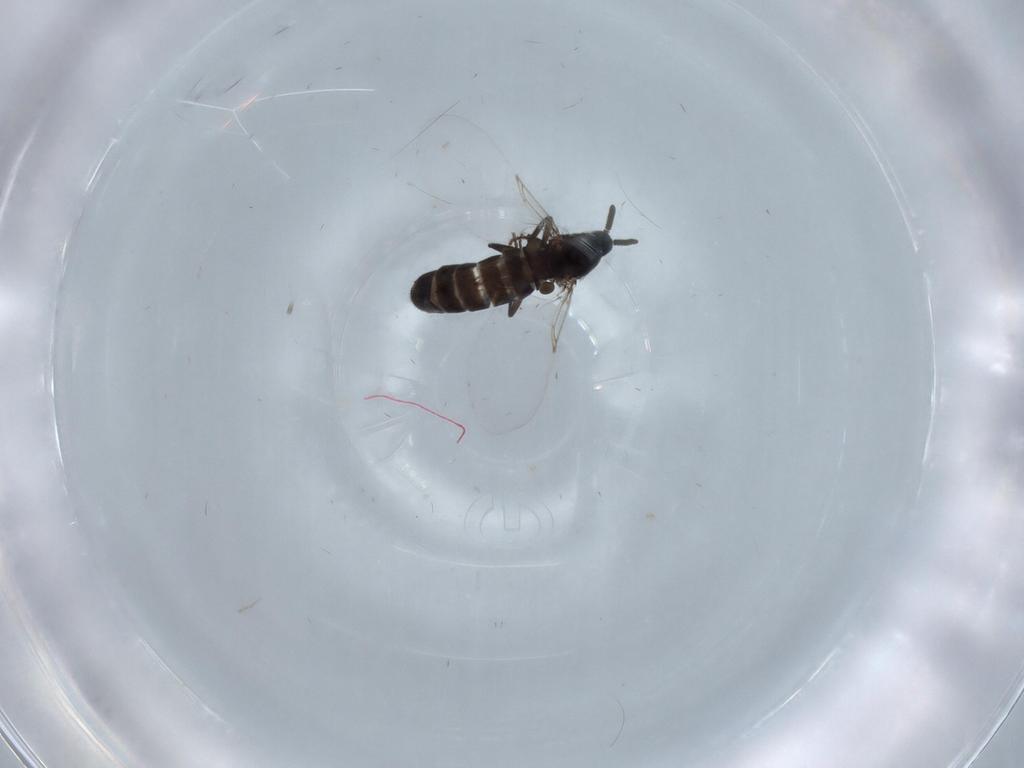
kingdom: Animalia
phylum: Arthropoda
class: Insecta
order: Diptera
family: Scatopsidae
